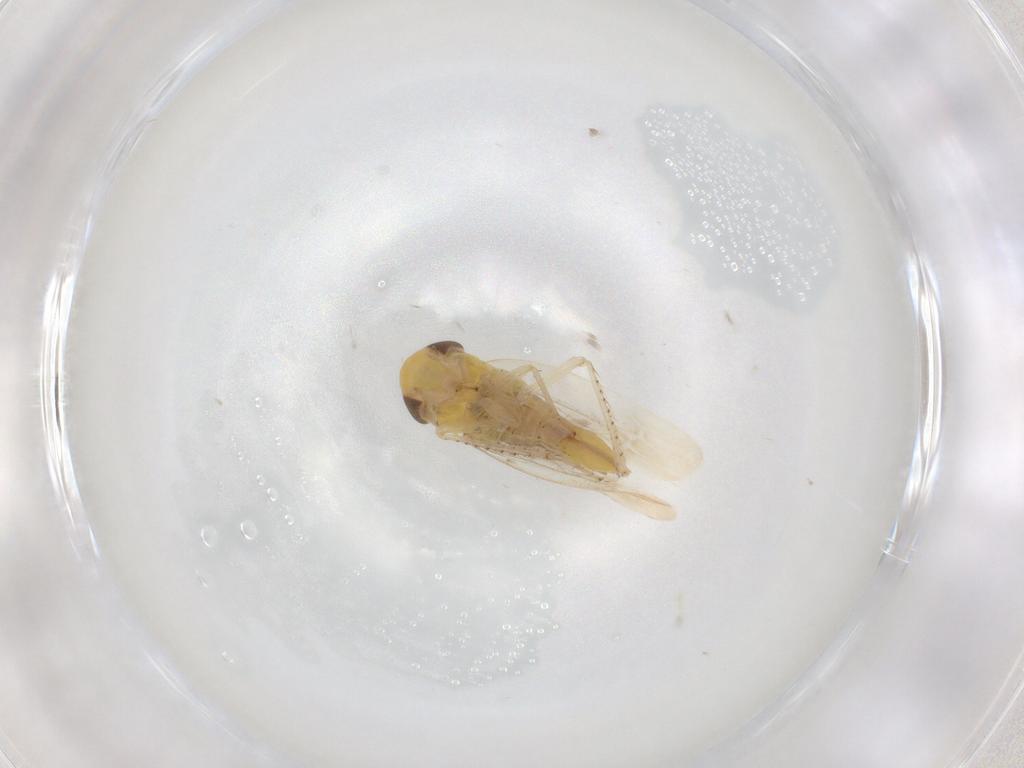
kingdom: Animalia
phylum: Arthropoda
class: Insecta
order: Hemiptera
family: Cicadellidae
